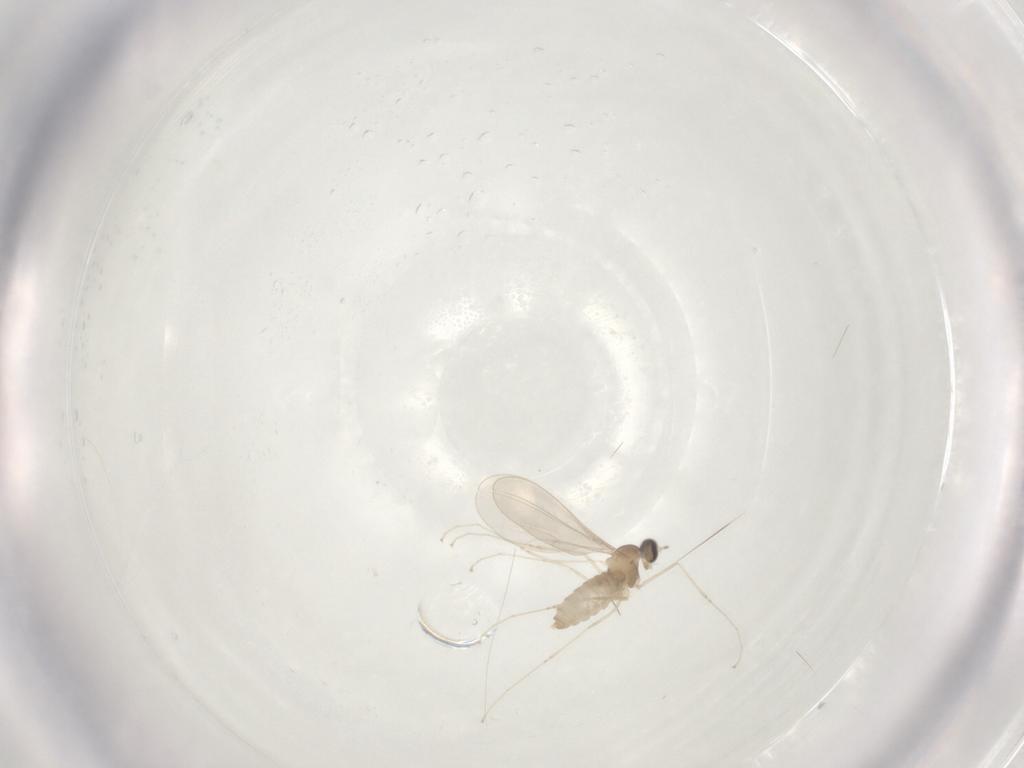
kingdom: Animalia
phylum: Arthropoda
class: Insecta
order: Diptera
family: Cecidomyiidae
